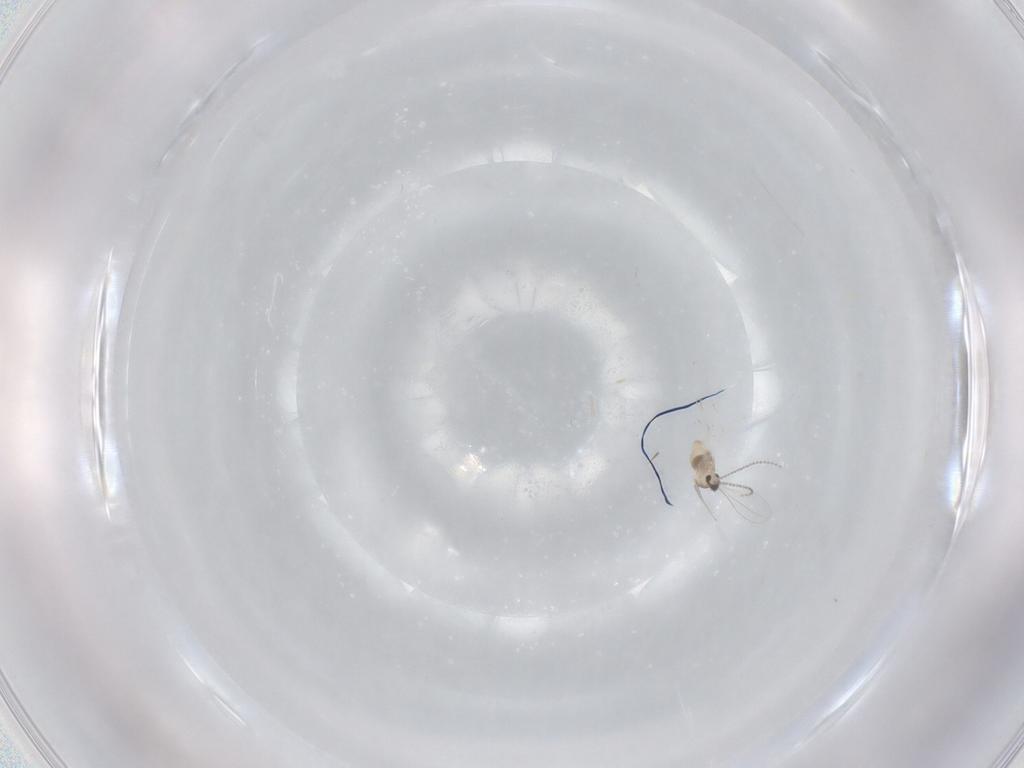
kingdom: Animalia
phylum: Arthropoda
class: Insecta
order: Diptera
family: Cecidomyiidae
